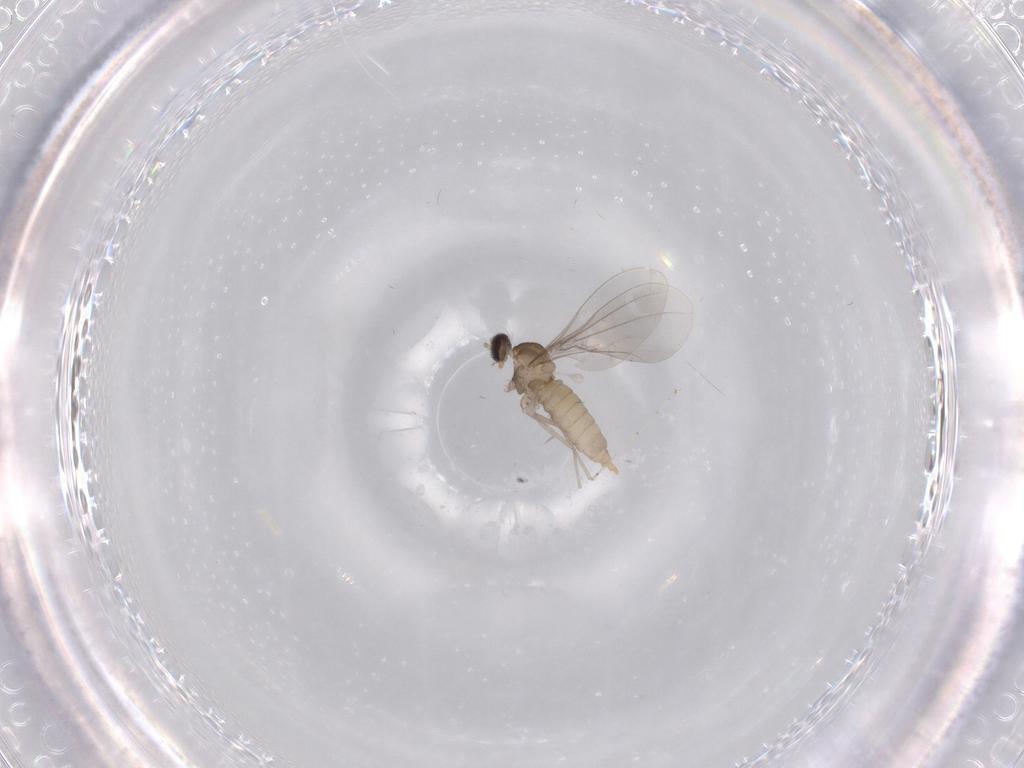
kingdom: Animalia
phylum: Arthropoda
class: Insecta
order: Diptera
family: Cecidomyiidae
